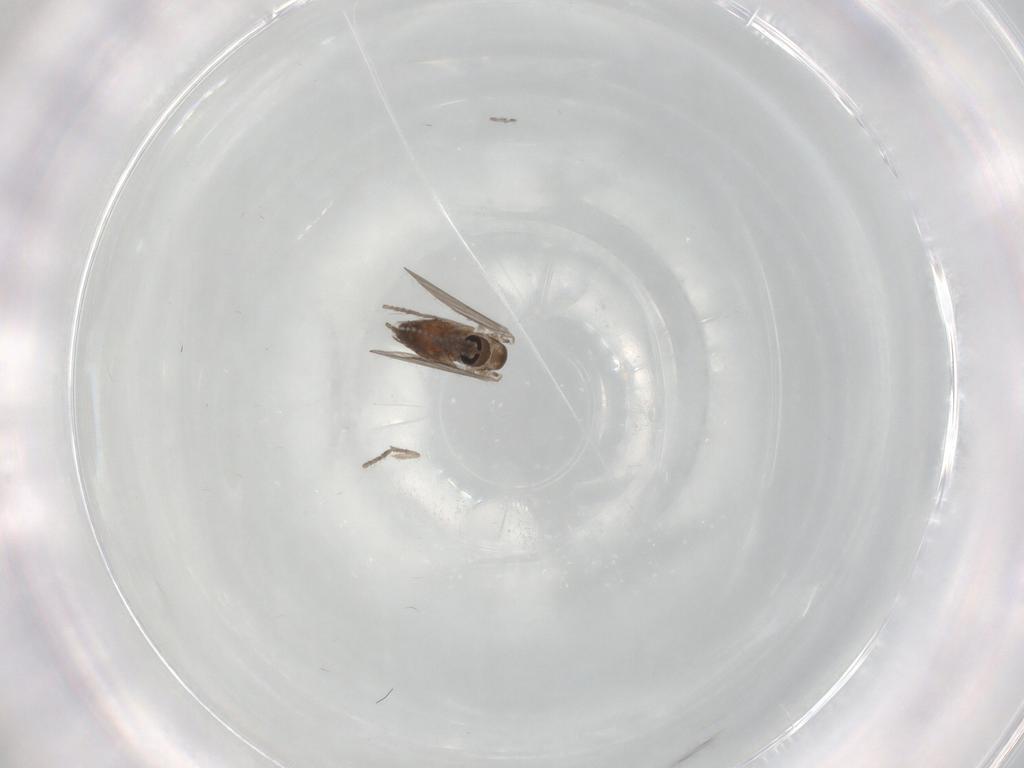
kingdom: Animalia
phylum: Arthropoda
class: Insecta
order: Diptera
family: Psychodidae
